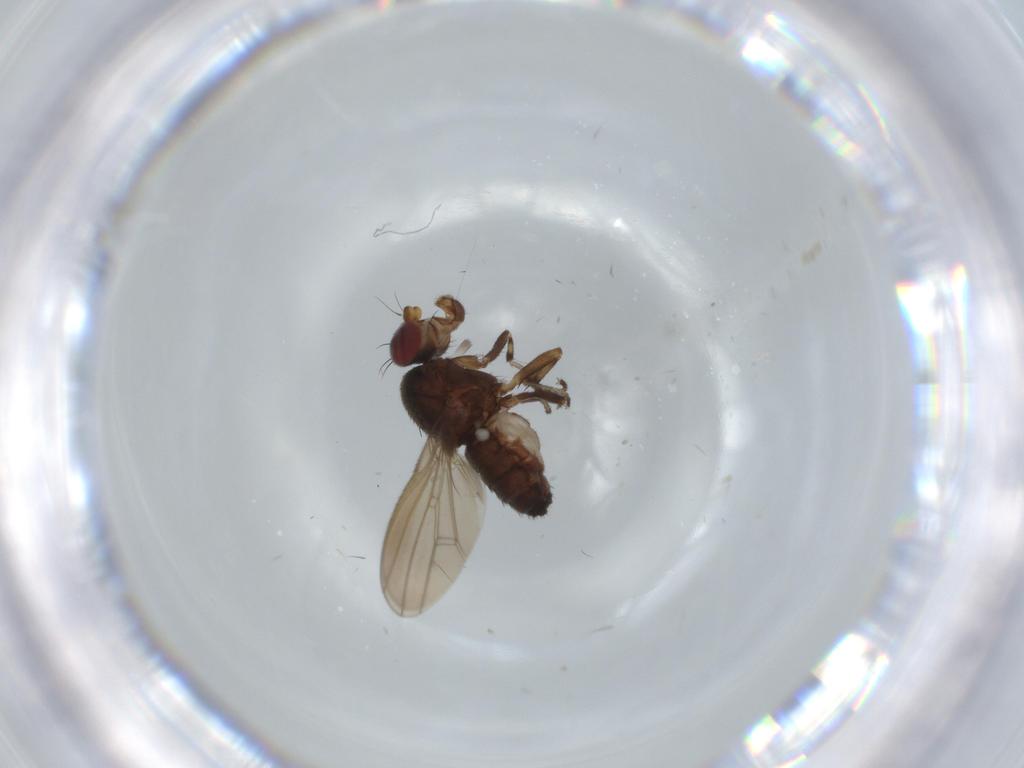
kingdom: Animalia
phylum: Arthropoda
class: Insecta
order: Diptera
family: Heleomyzidae
